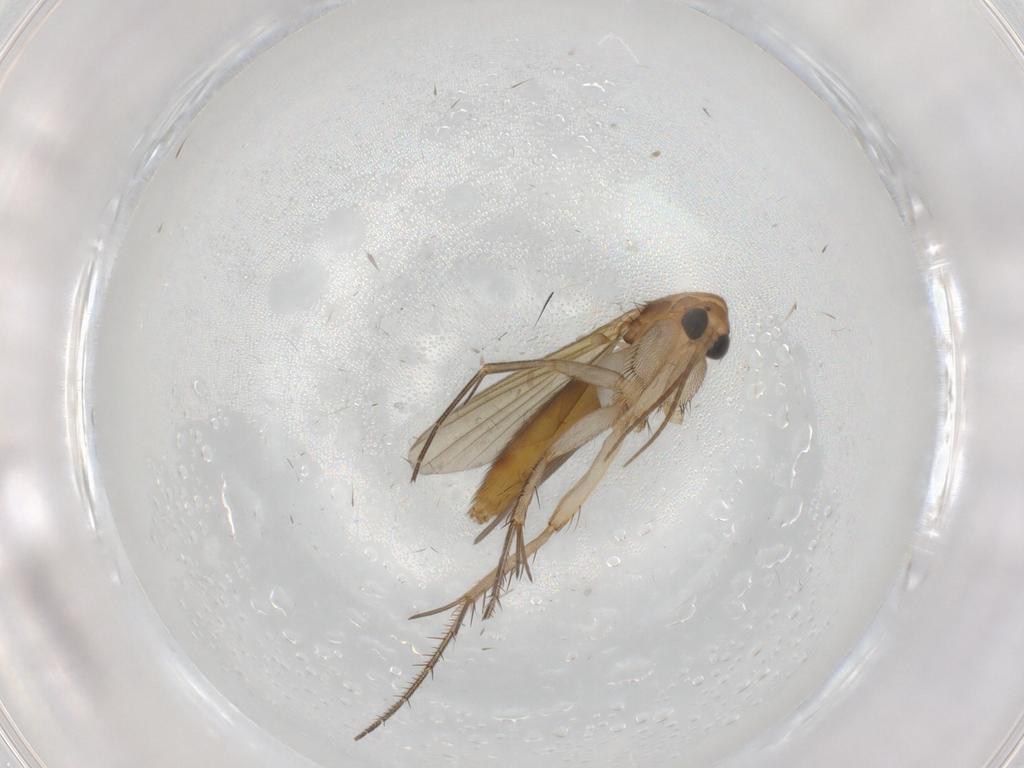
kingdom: Animalia
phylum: Arthropoda
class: Insecta
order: Diptera
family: Mycetophilidae
